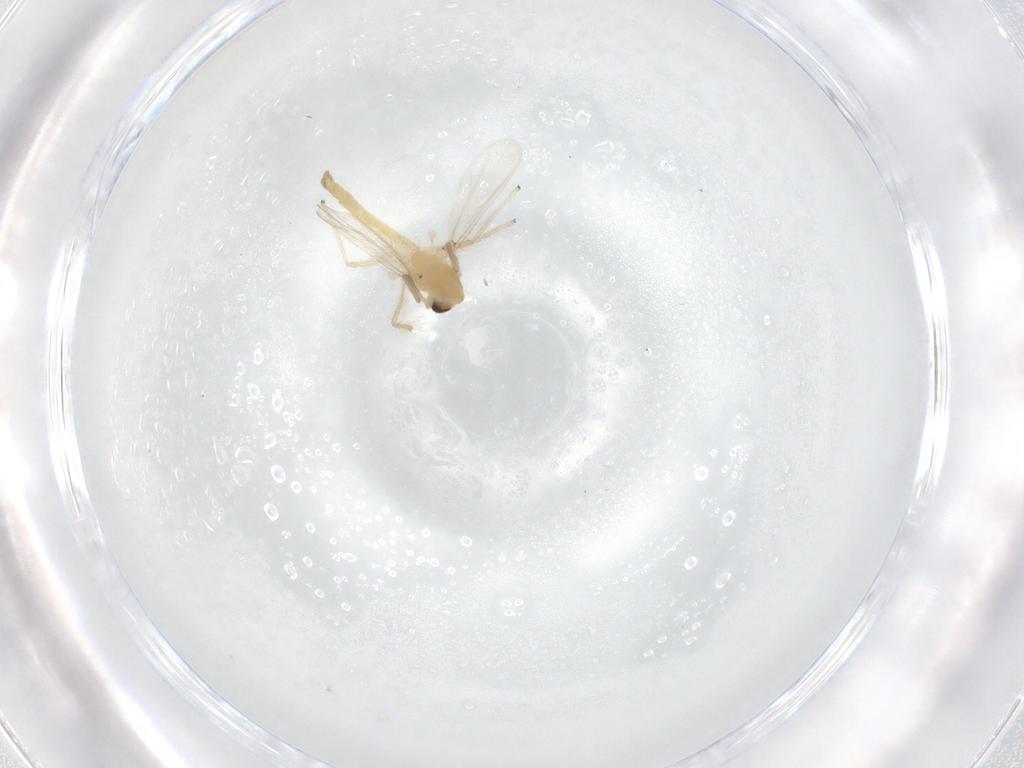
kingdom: Animalia
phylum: Arthropoda
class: Insecta
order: Diptera
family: Chironomidae
